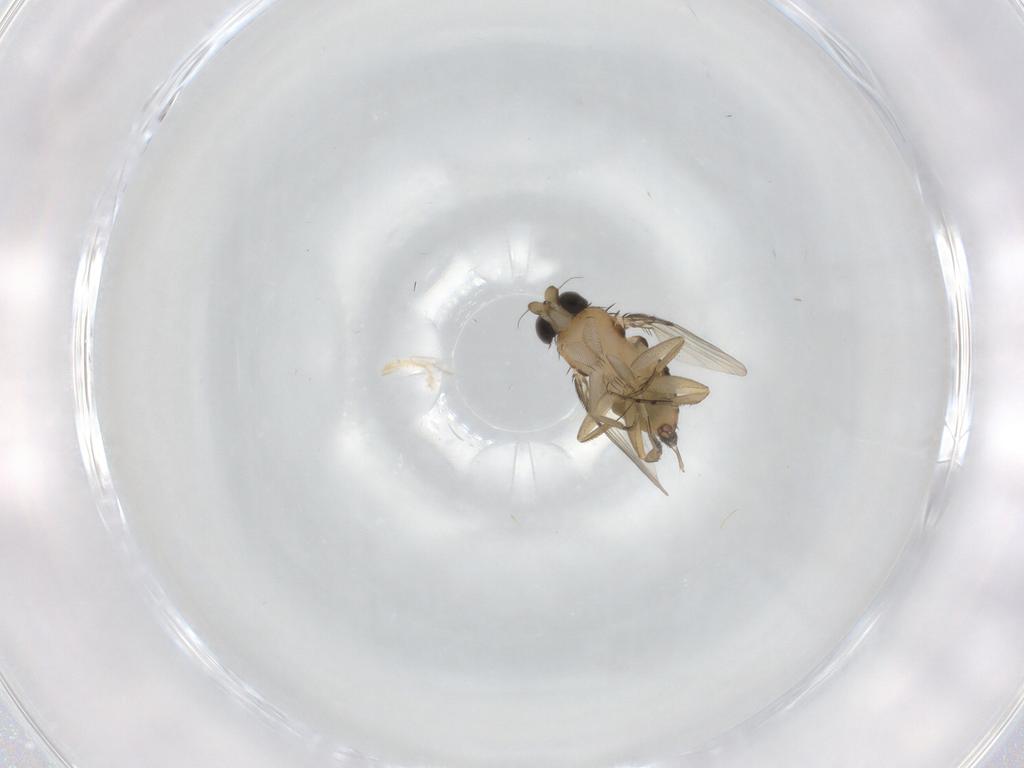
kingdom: Animalia
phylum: Arthropoda
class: Insecta
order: Diptera
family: Phoridae
